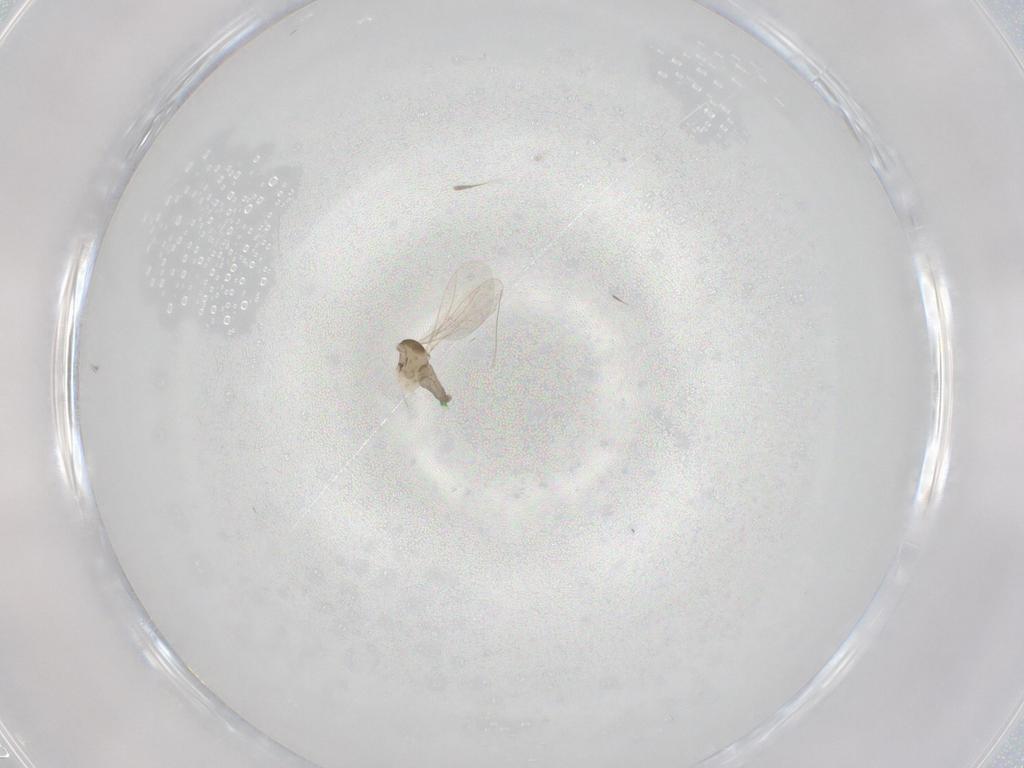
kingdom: Animalia
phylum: Arthropoda
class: Insecta
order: Diptera
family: Cecidomyiidae
